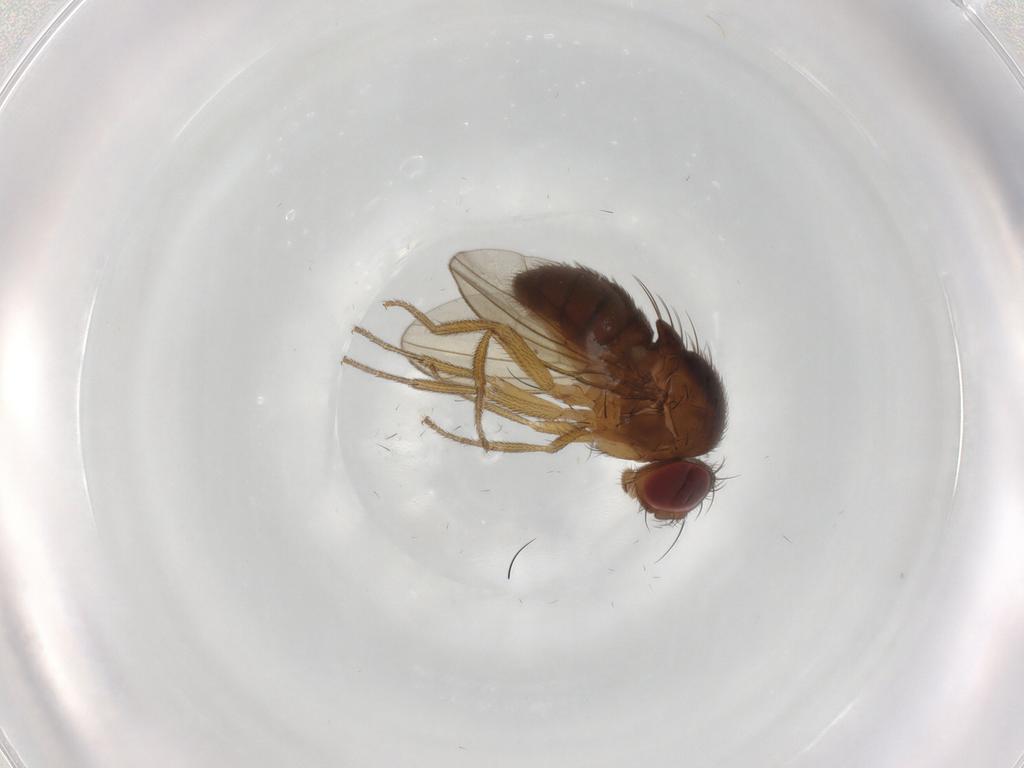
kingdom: Animalia
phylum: Arthropoda
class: Insecta
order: Diptera
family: Drosophilidae
